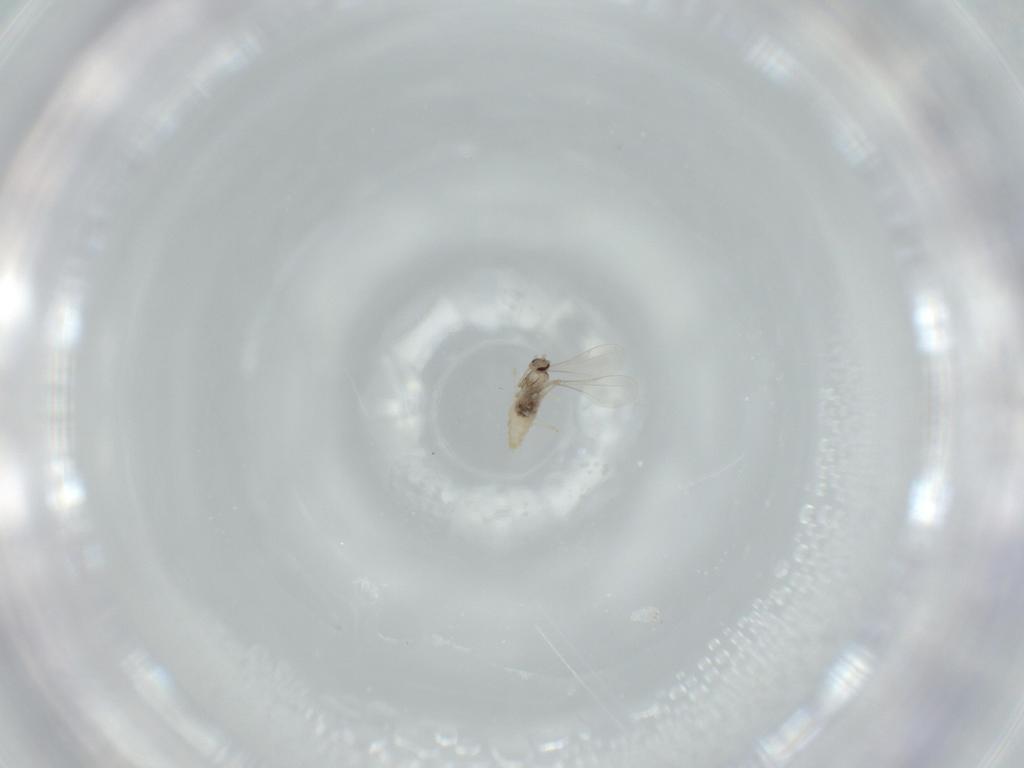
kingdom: Animalia
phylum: Arthropoda
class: Insecta
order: Diptera
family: Cecidomyiidae
